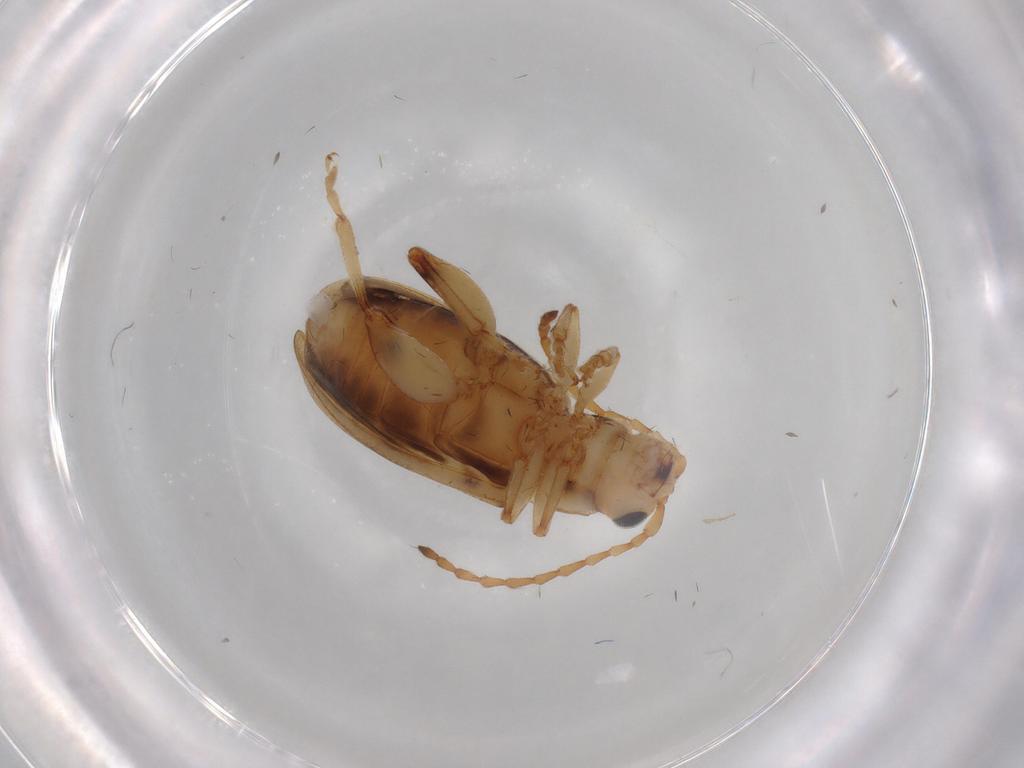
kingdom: Animalia
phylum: Arthropoda
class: Insecta
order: Coleoptera
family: Chrysomelidae
